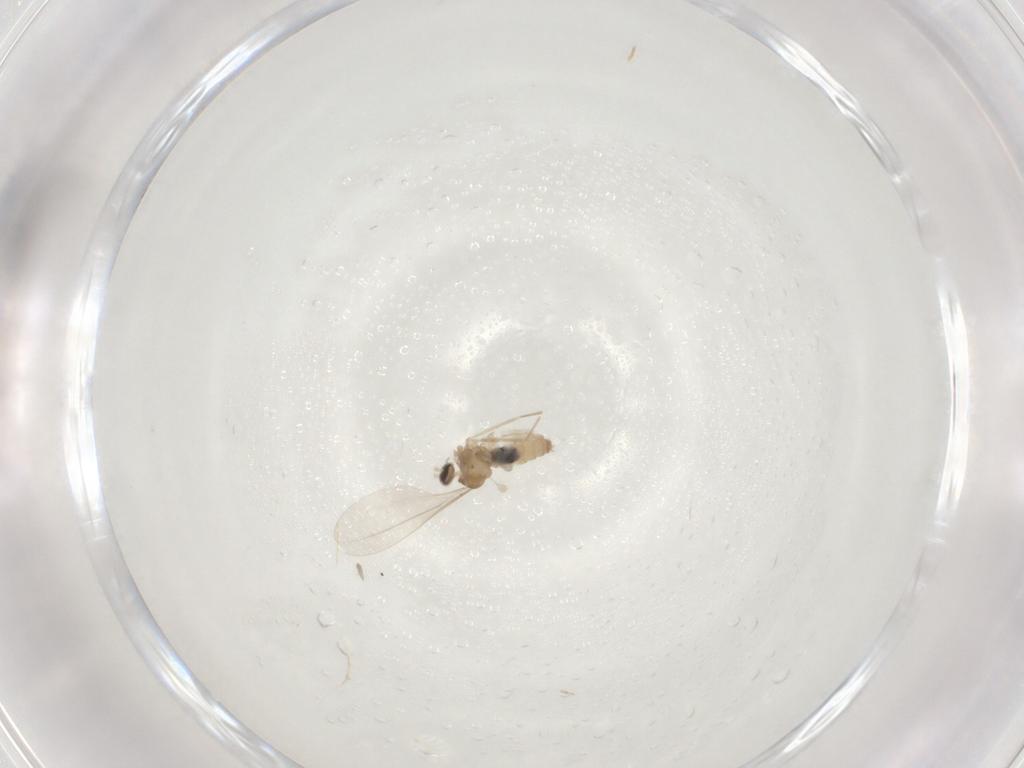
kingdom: Animalia
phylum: Arthropoda
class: Insecta
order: Diptera
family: Cecidomyiidae
